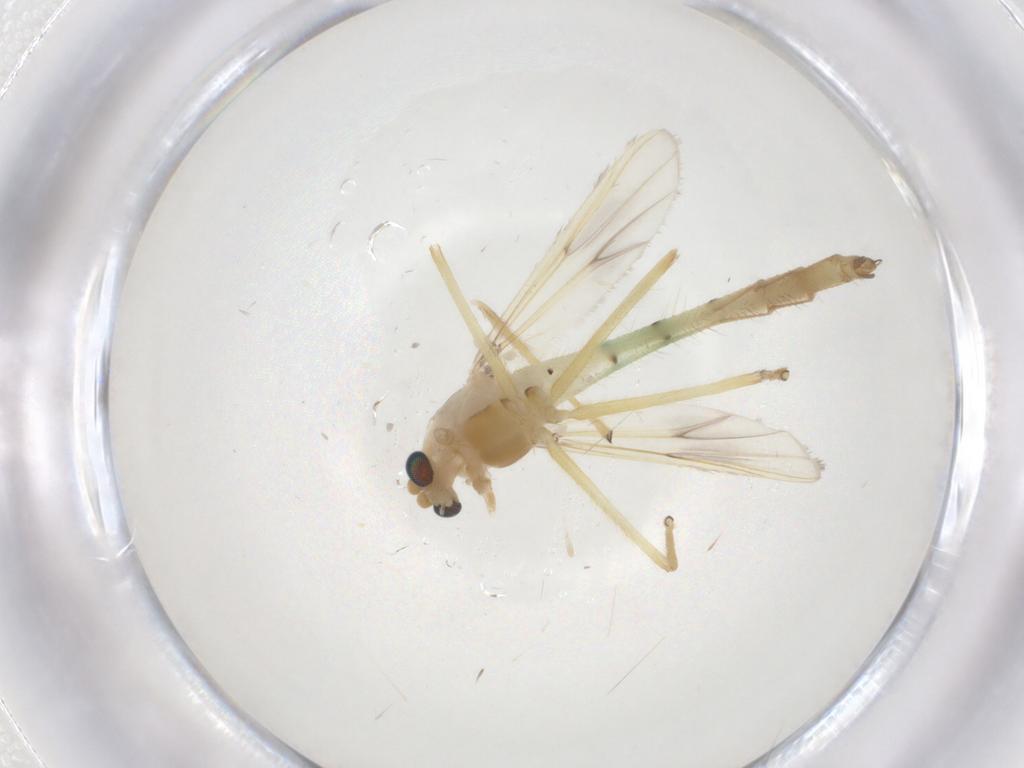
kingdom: Animalia
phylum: Arthropoda
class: Insecta
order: Diptera
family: Chironomidae
